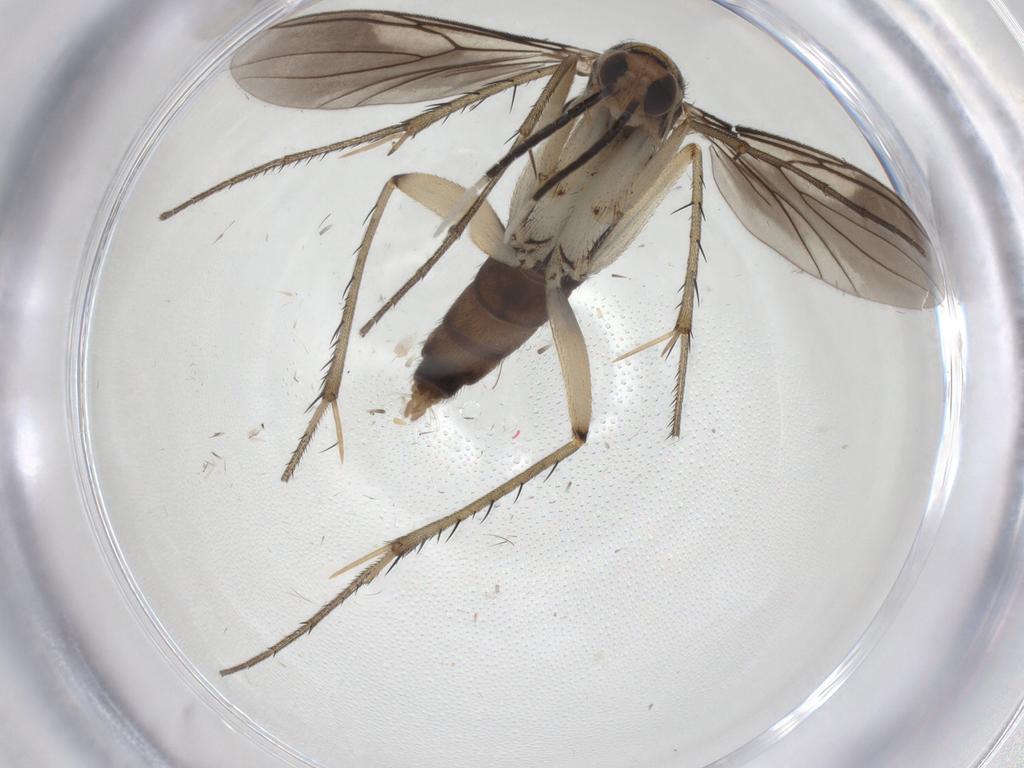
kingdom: Animalia
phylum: Arthropoda
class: Insecta
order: Diptera
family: Mycetophilidae
